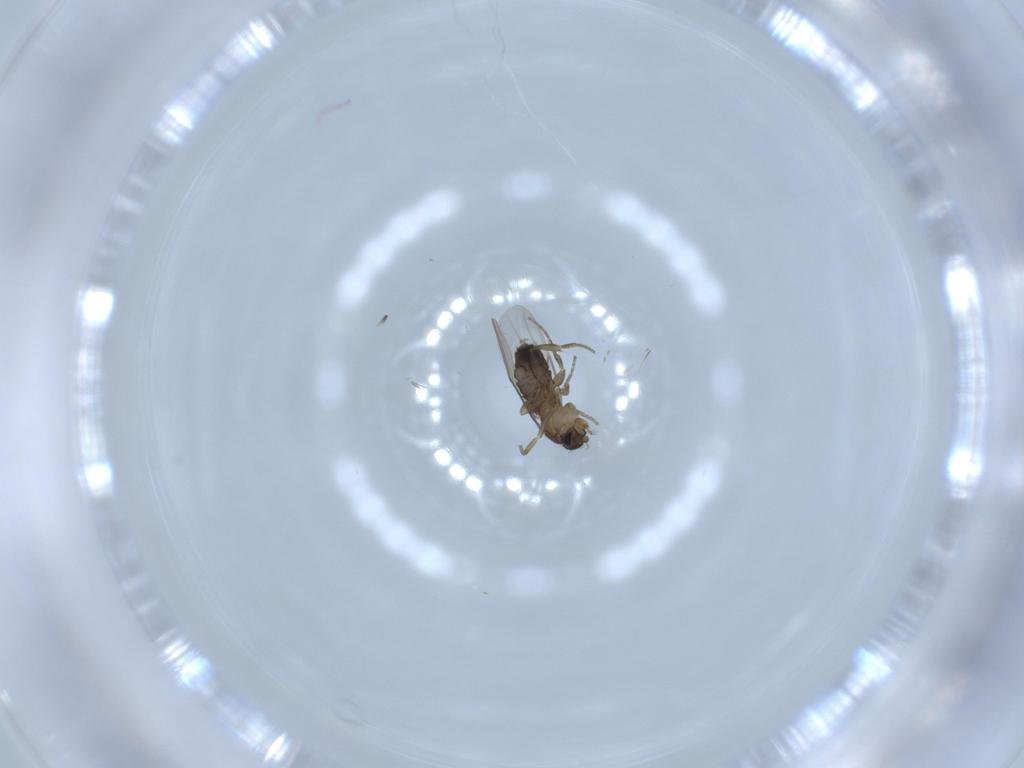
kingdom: Animalia
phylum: Arthropoda
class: Insecta
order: Diptera
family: Phoridae
